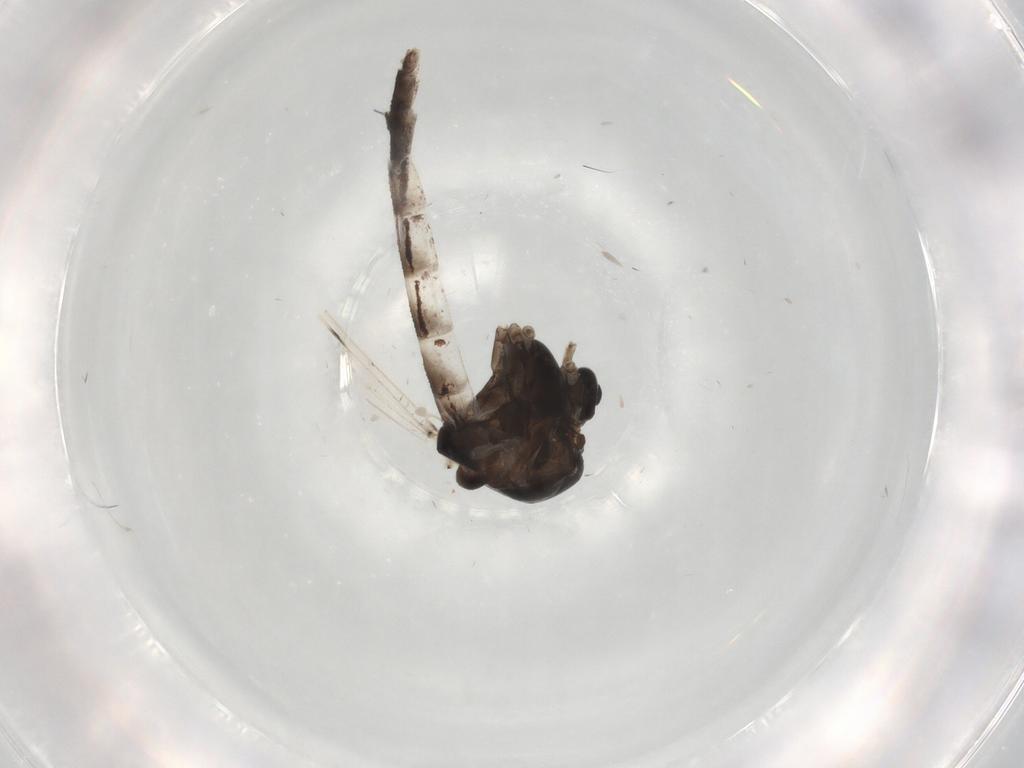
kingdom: Animalia
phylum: Arthropoda
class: Insecta
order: Diptera
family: Chironomidae
